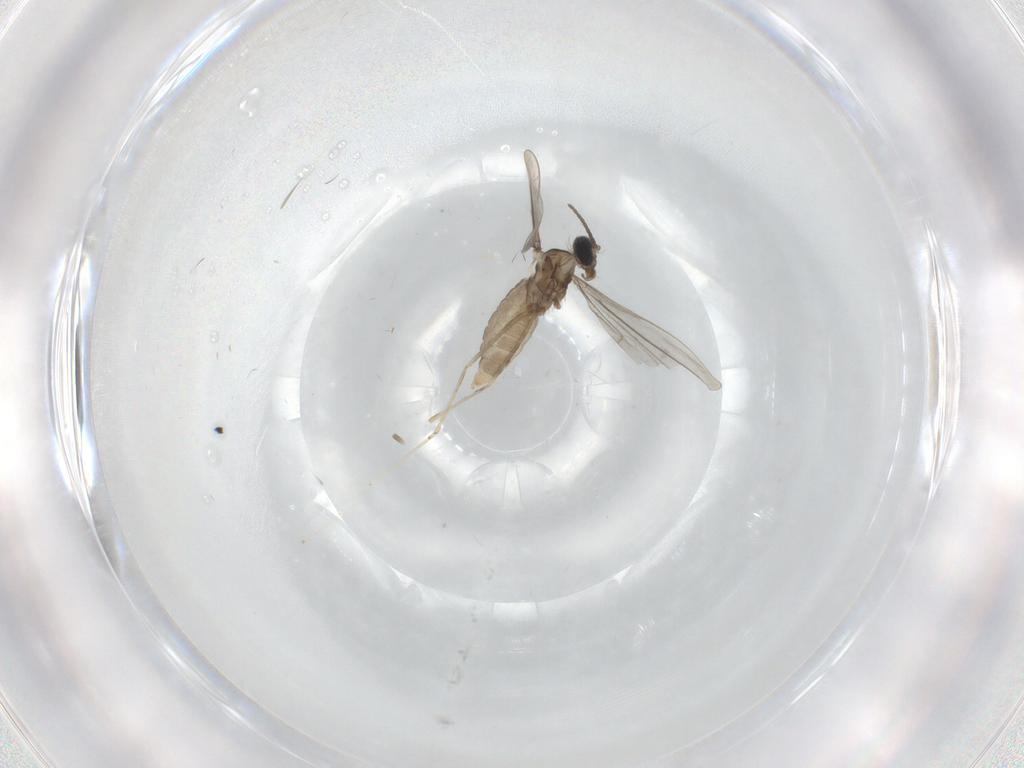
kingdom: Animalia
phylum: Arthropoda
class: Insecta
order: Diptera
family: Cecidomyiidae
